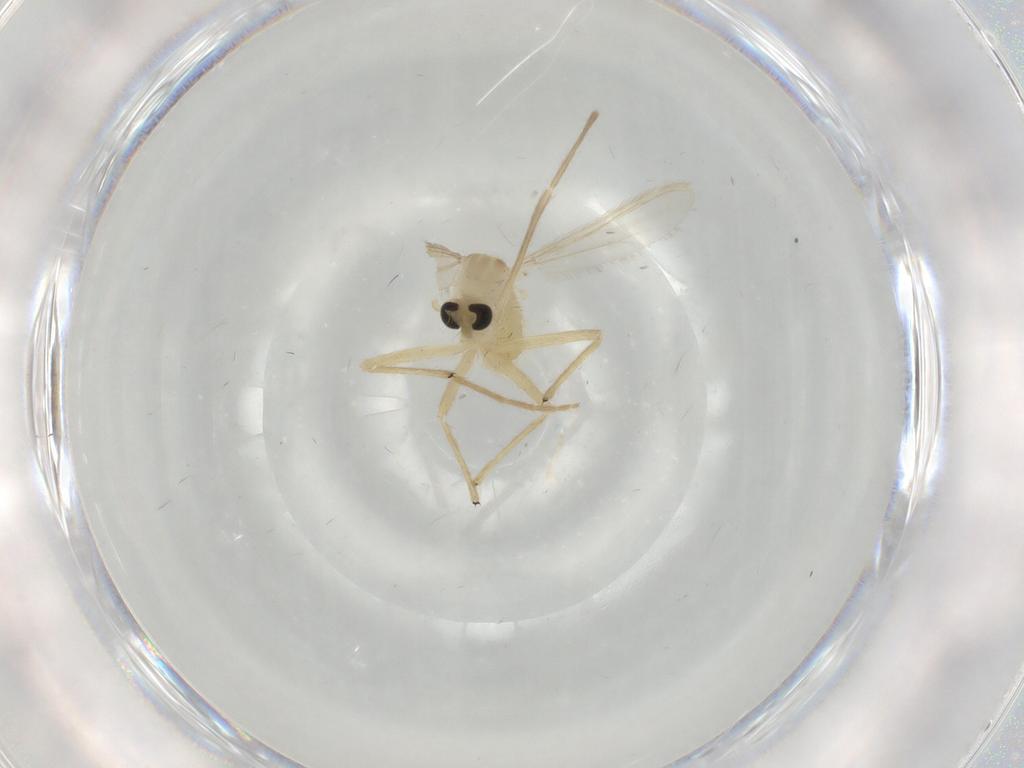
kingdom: Animalia
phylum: Arthropoda
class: Insecta
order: Diptera
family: Chironomidae
